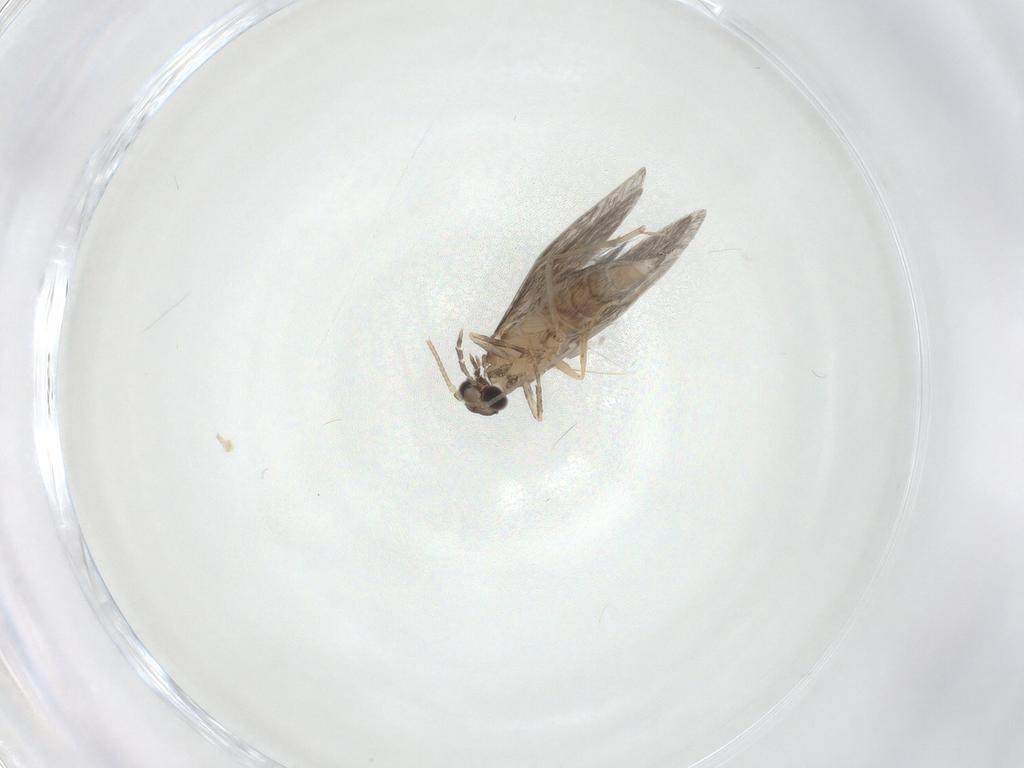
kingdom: Animalia
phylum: Arthropoda
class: Insecta
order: Trichoptera
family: Hydroptilidae
